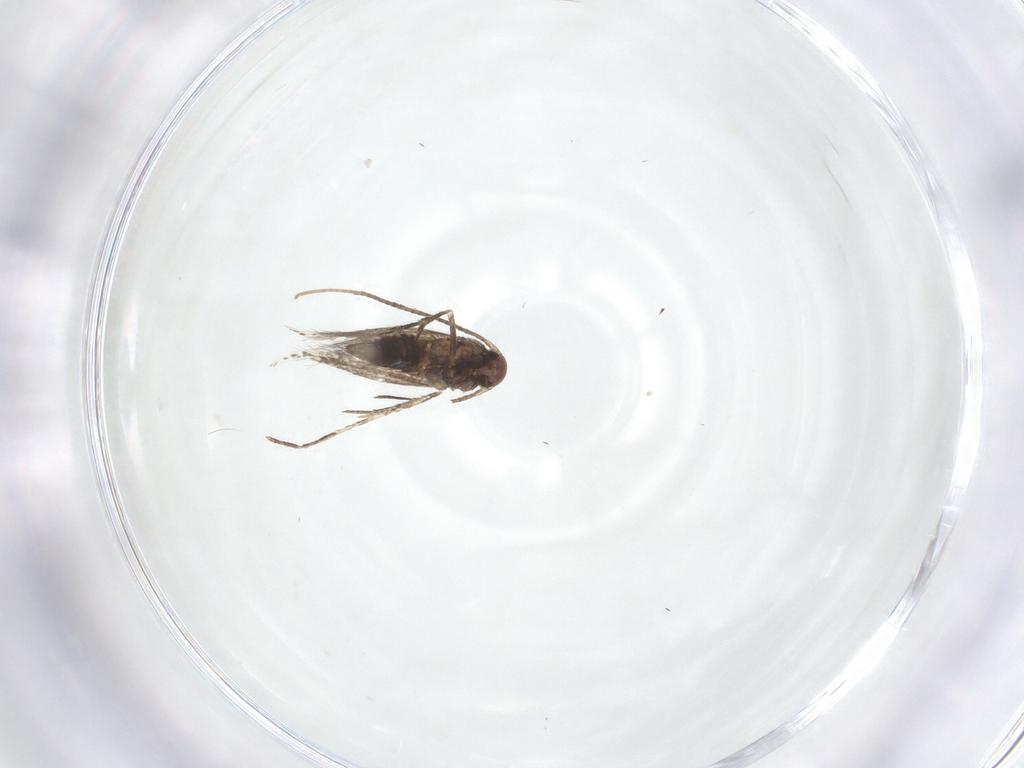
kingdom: Animalia
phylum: Arthropoda
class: Insecta
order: Lepidoptera
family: Gracillariidae
